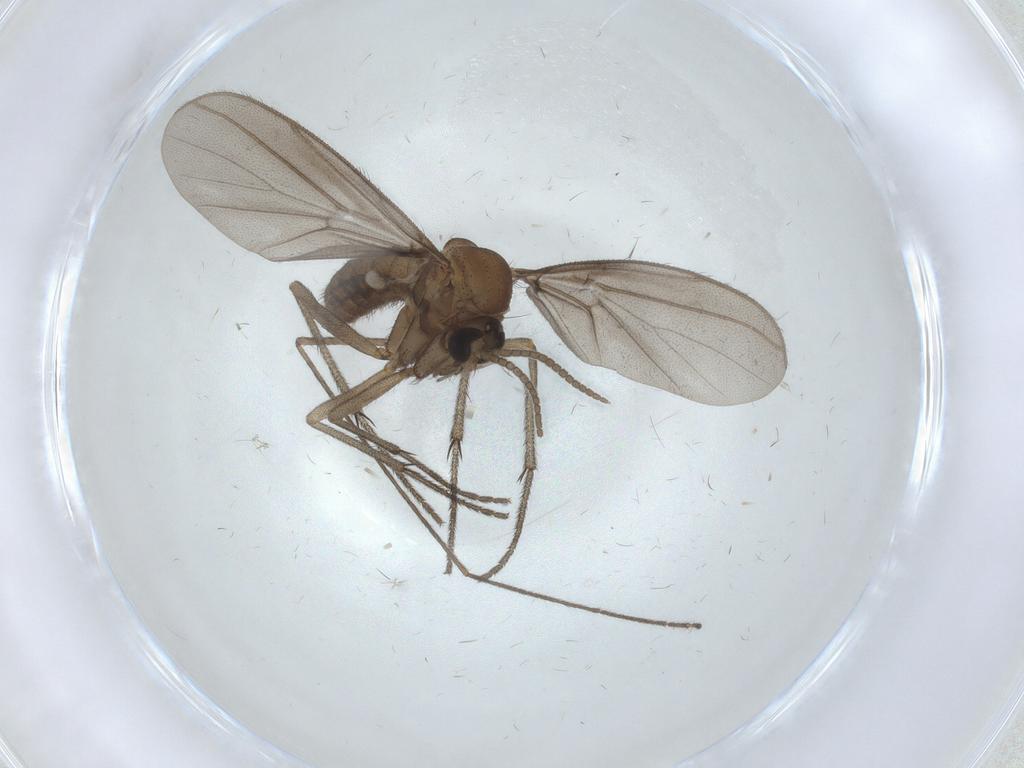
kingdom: Animalia
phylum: Arthropoda
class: Insecta
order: Diptera
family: Sciaridae
